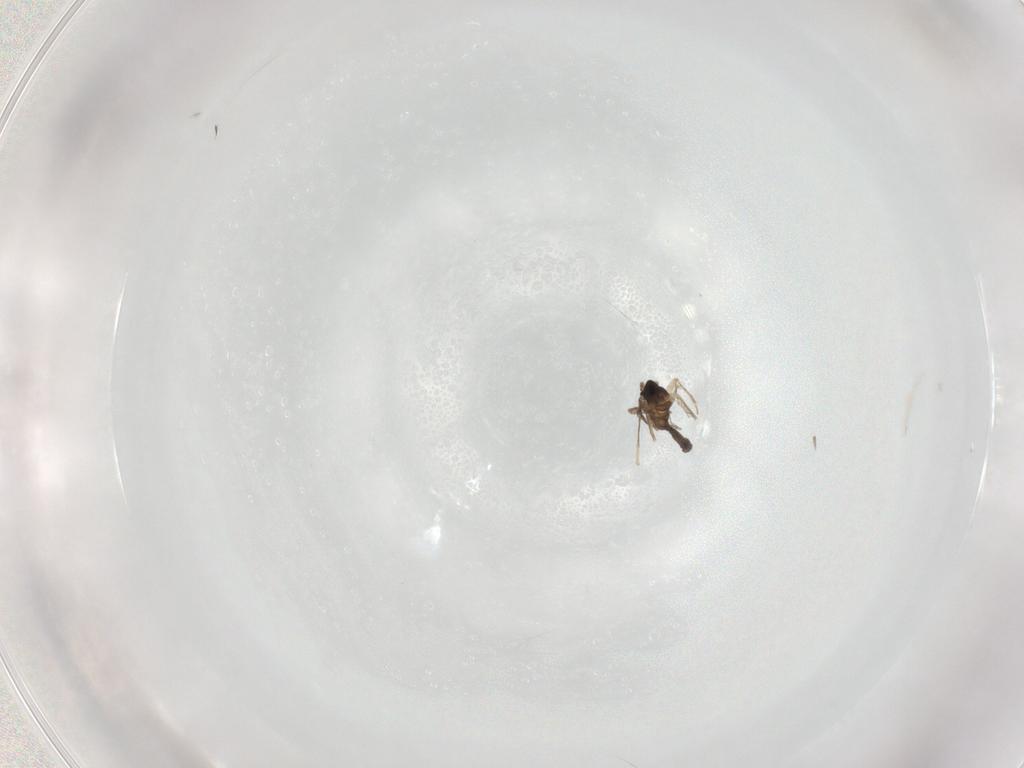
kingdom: Animalia
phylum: Arthropoda
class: Insecta
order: Diptera
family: Cecidomyiidae
